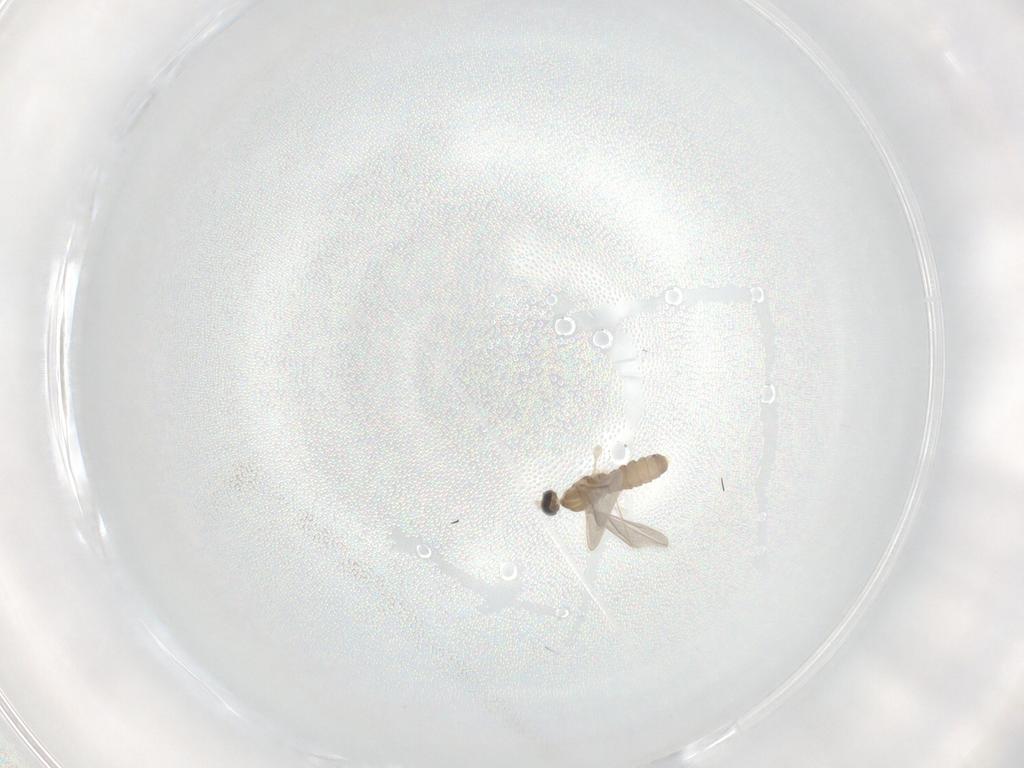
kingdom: Animalia
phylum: Arthropoda
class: Insecta
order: Diptera
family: Cecidomyiidae
